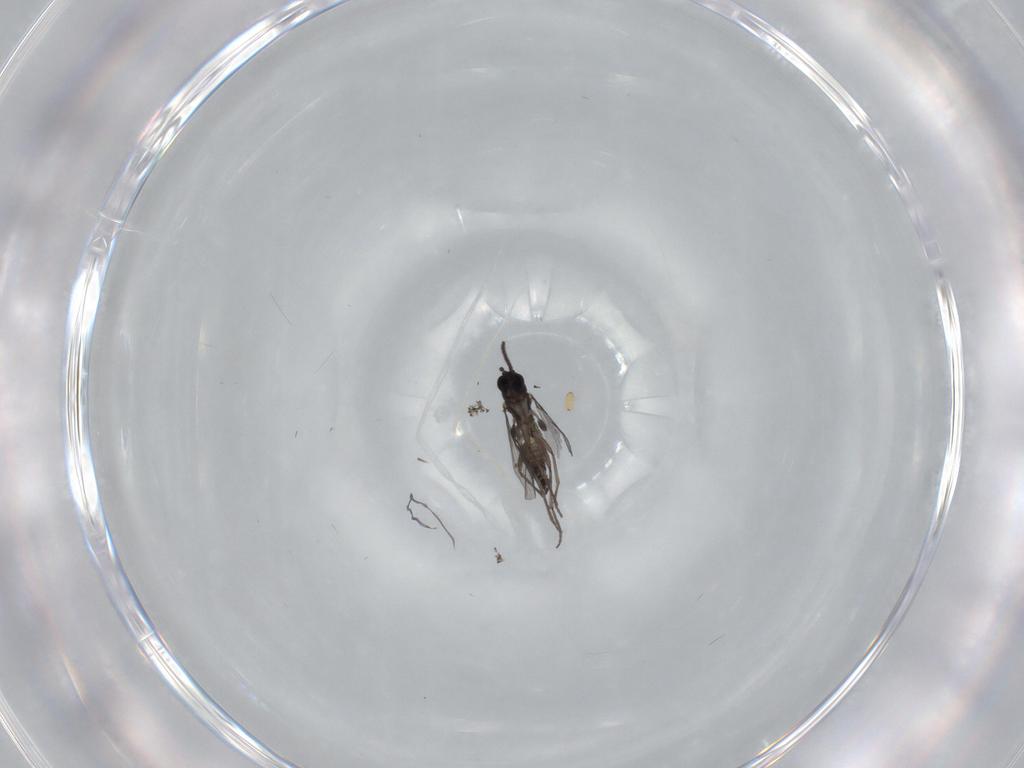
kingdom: Animalia
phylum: Arthropoda
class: Insecta
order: Diptera
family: Sciaridae
